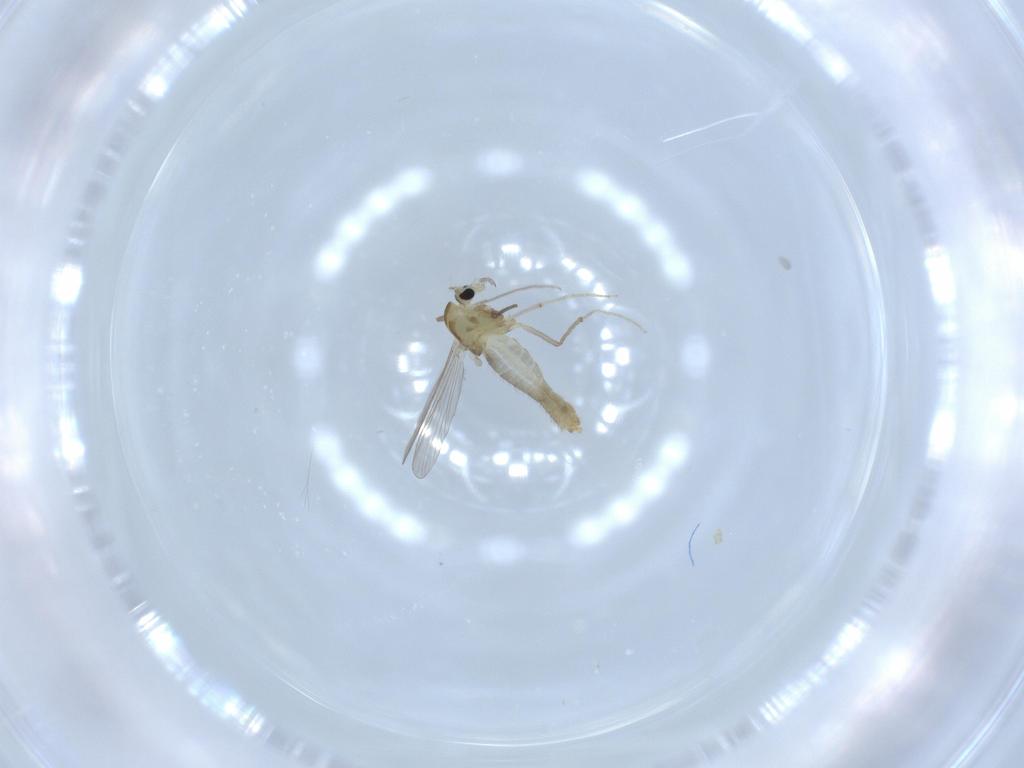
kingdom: Animalia
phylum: Arthropoda
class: Insecta
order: Diptera
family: Chironomidae
